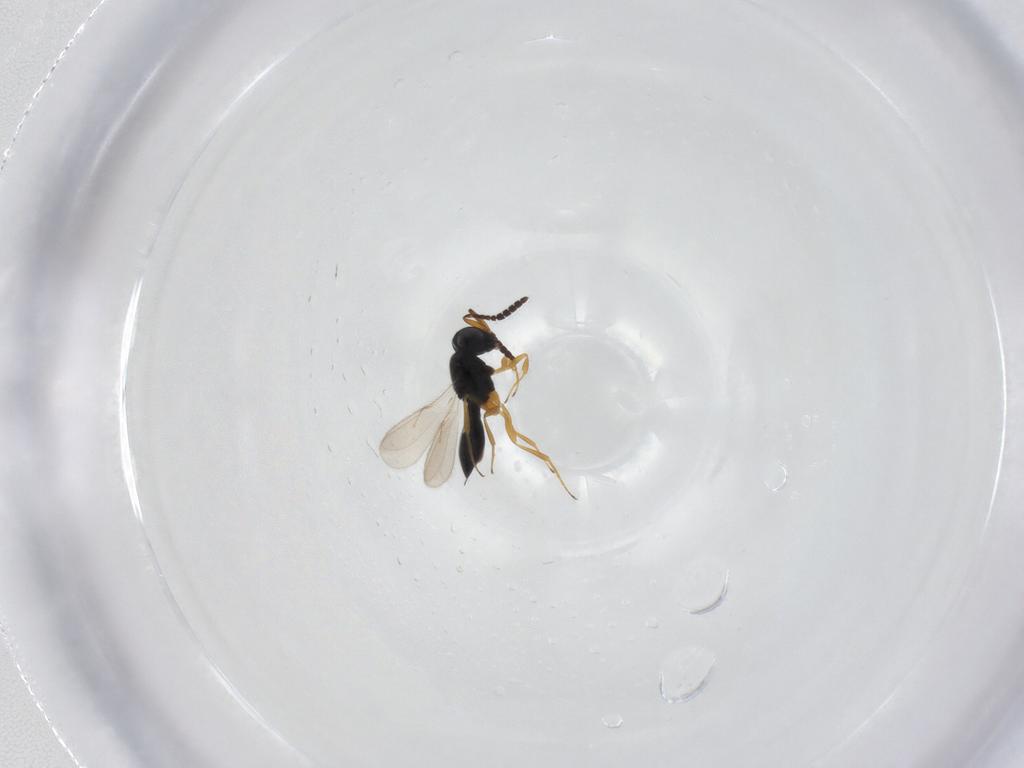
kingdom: Animalia
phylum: Arthropoda
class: Insecta
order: Hymenoptera
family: Scelionidae
